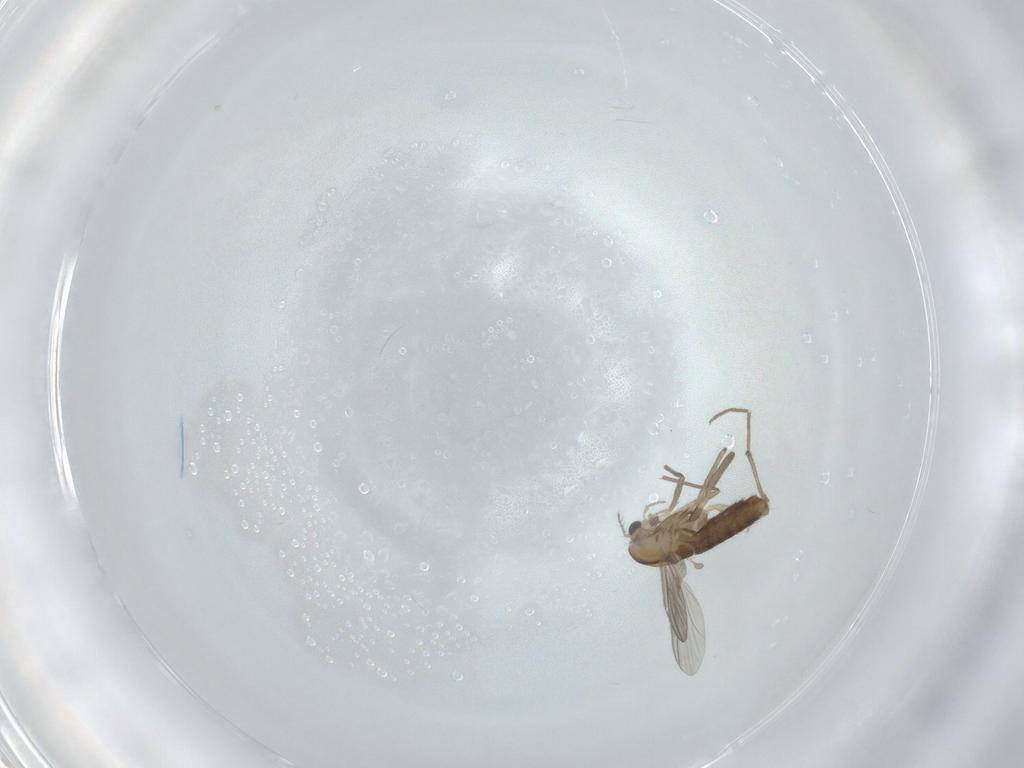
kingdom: Animalia
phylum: Arthropoda
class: Insecta
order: Diptera
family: Chironomidae
